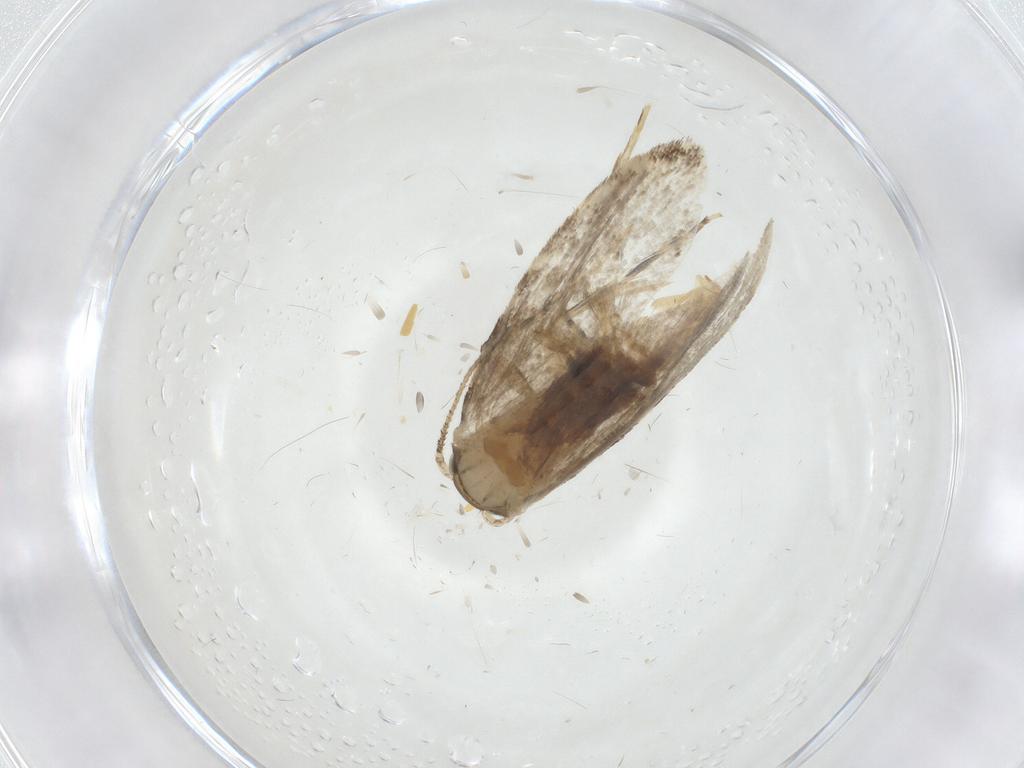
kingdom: Animalia
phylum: Arthropoda
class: Insecta
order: Lepidoptera
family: Tineidae
